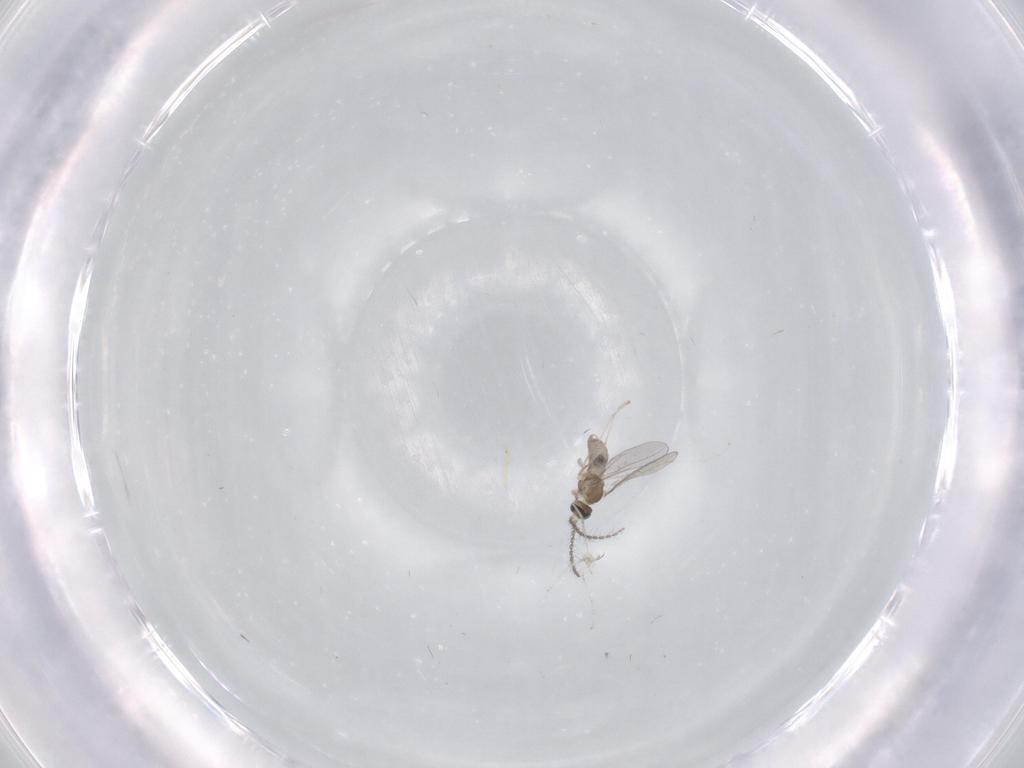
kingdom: Animalia
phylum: Arthropoda
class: Insecta
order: Diptera
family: Cecidomyiidae
